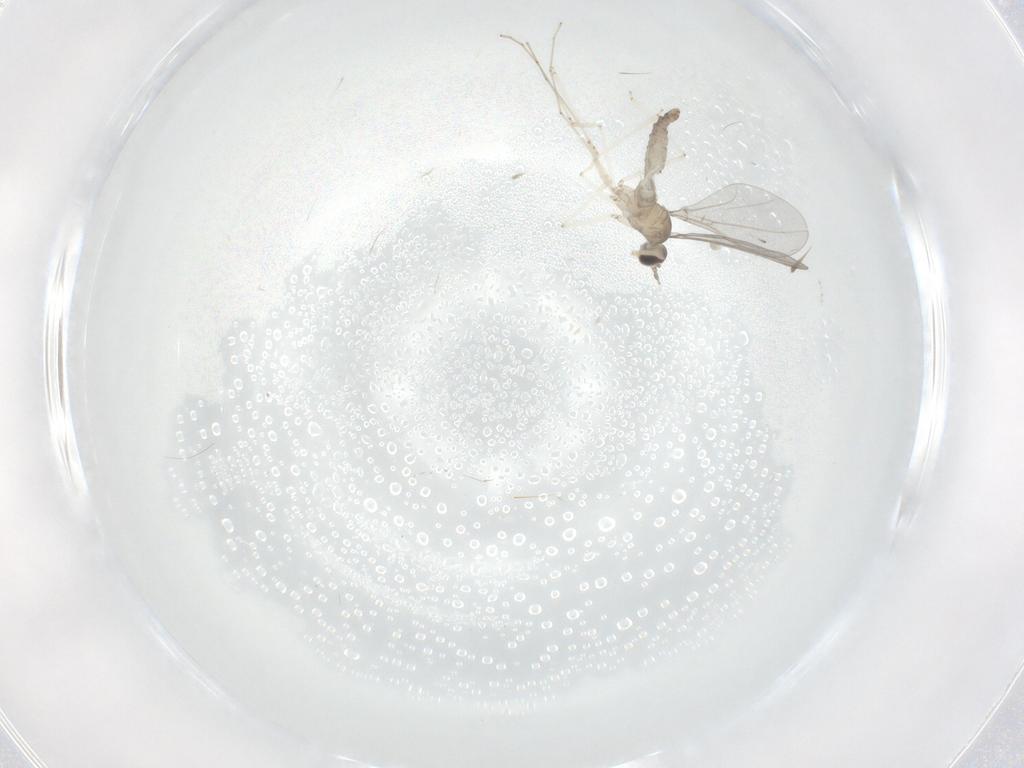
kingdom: Animalia
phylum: Arthropoda
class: Insecta
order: Diptera
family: Cecidomyiidae
